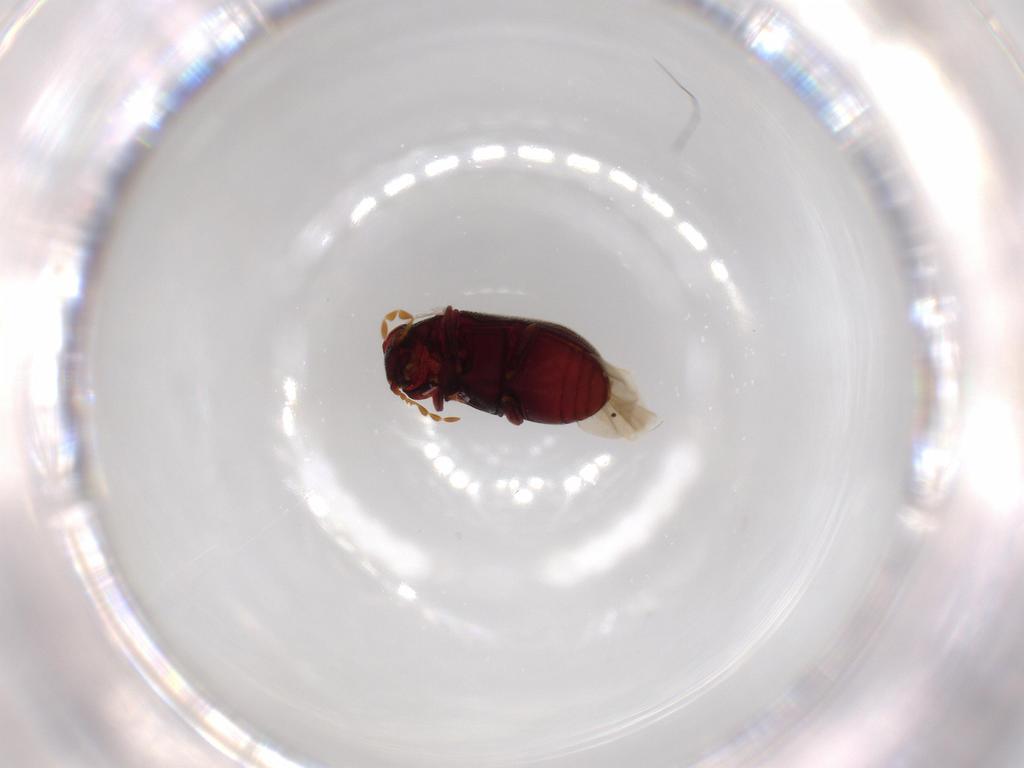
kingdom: Animalia
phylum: Arthropoda
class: Insecta
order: Coleoptera
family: Anobiidae
